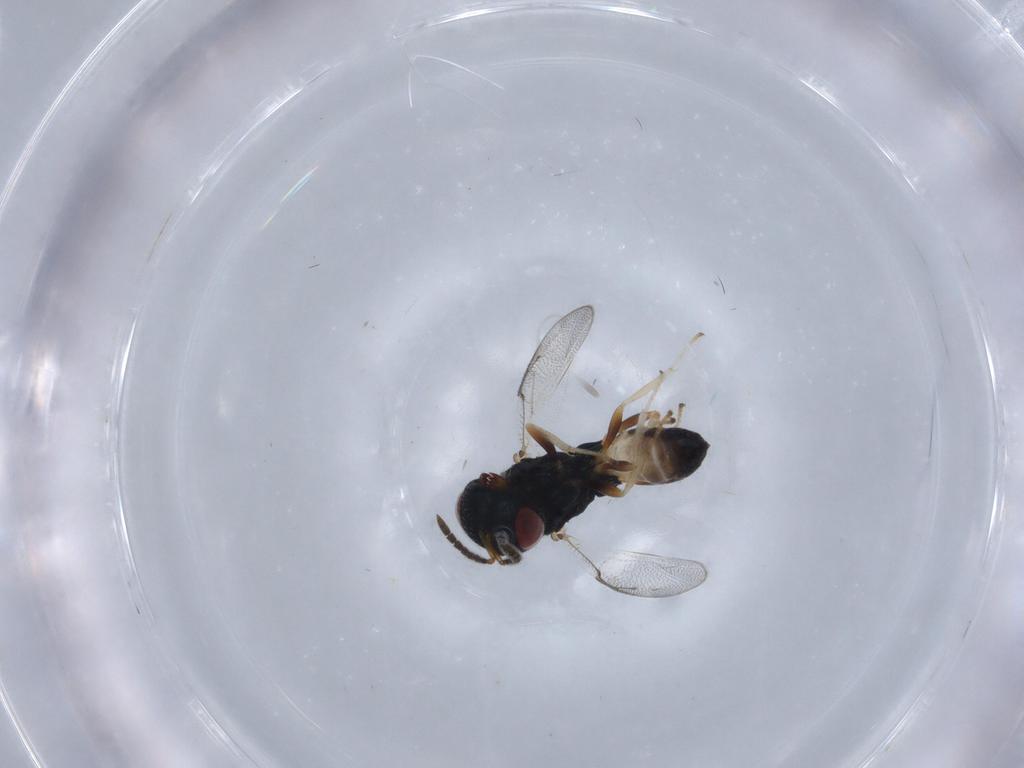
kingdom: Animalia
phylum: Arthropoda
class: Insecta
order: Hymenoptera
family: Pteromalidae
